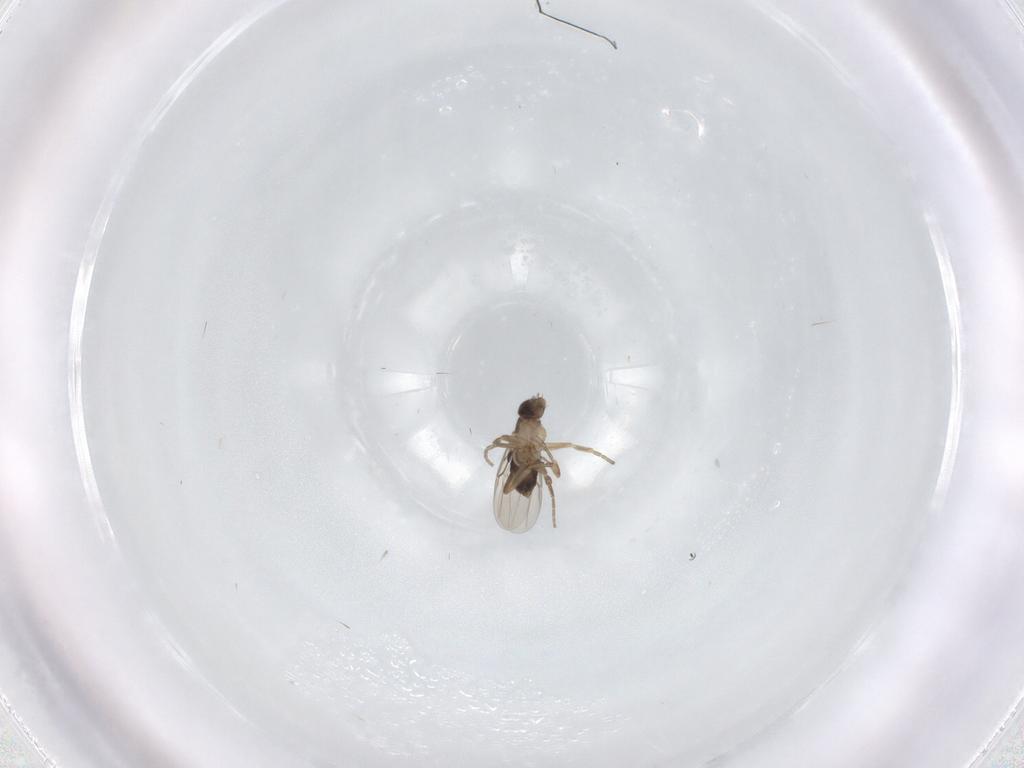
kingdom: Animalia
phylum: Arthropoda
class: Insecta
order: Diptera
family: Phoridae
